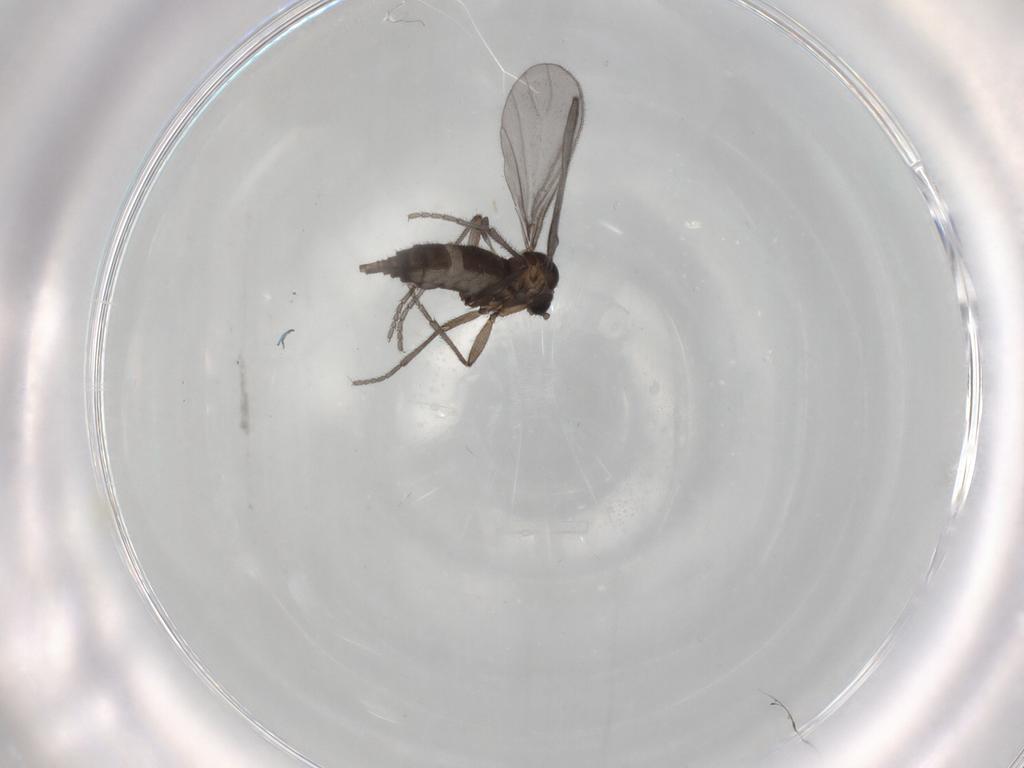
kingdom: Animalia
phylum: Arthropoda
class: Insecta
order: Diptera
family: Sciaridae
